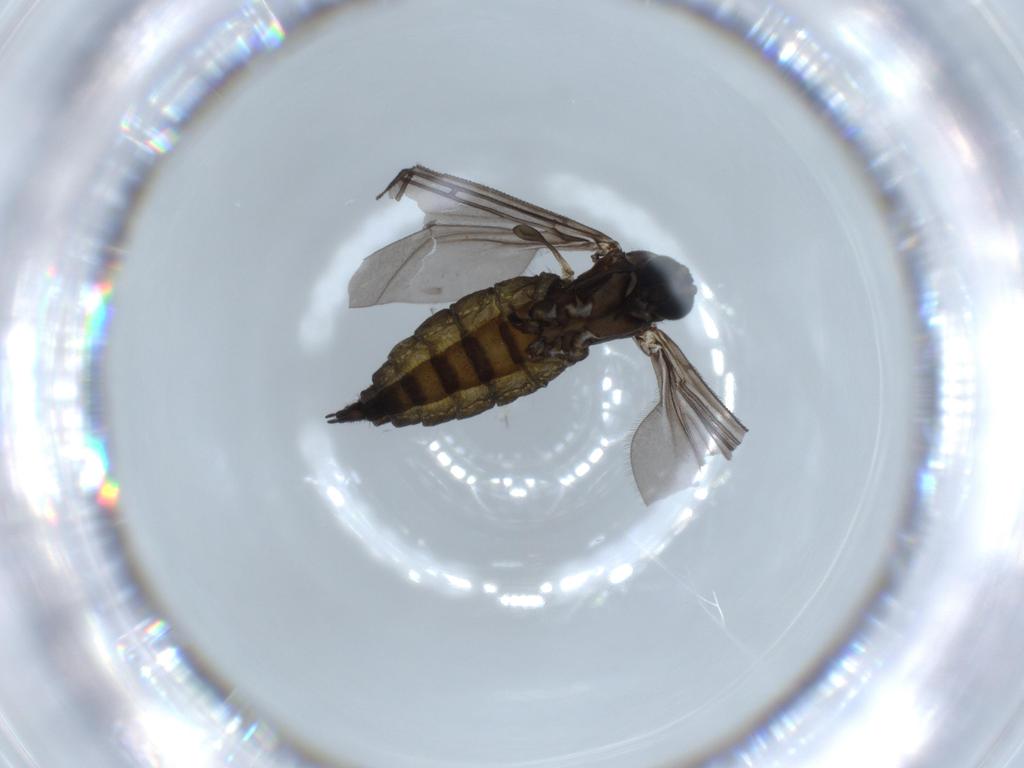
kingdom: Animalia
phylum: Arthropoda
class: Insecta
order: Diptera
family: Sciaridae
